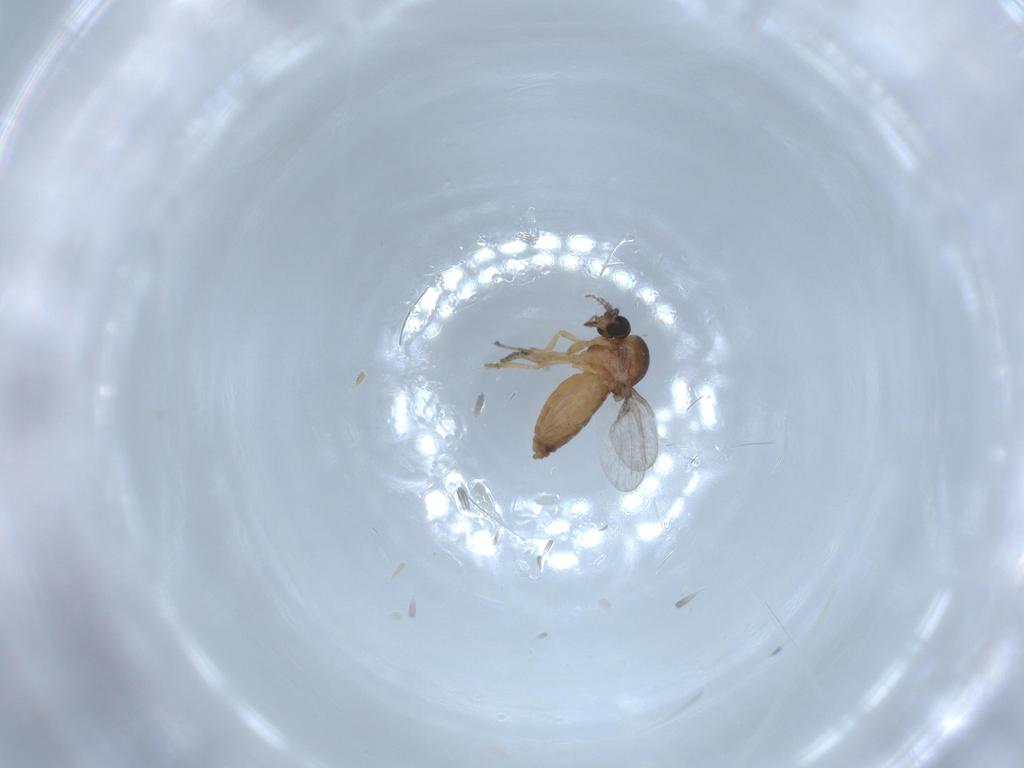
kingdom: Animalia
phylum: Arthropoda
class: Insecta
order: Diptera
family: Ceratopogonidae
